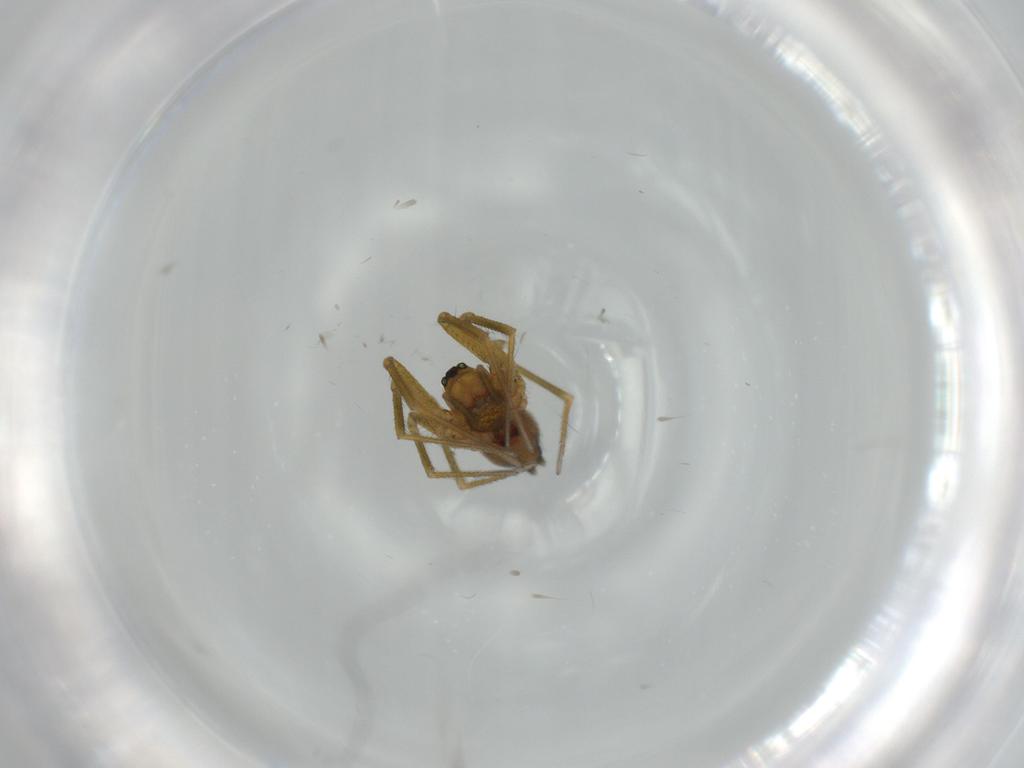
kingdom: Animalia
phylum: Arthropoda
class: Arachnida
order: Araneae
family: Linyphiidae
